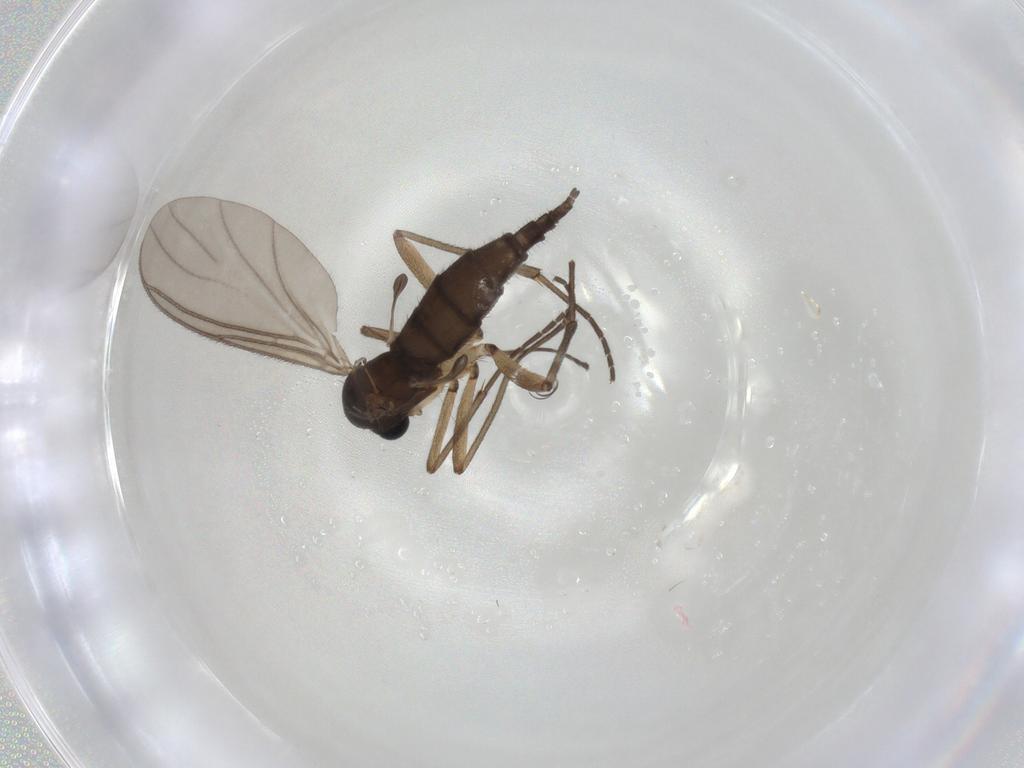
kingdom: Animalia
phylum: Arthropoda
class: Insecta
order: Diptera
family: Sciaridae
